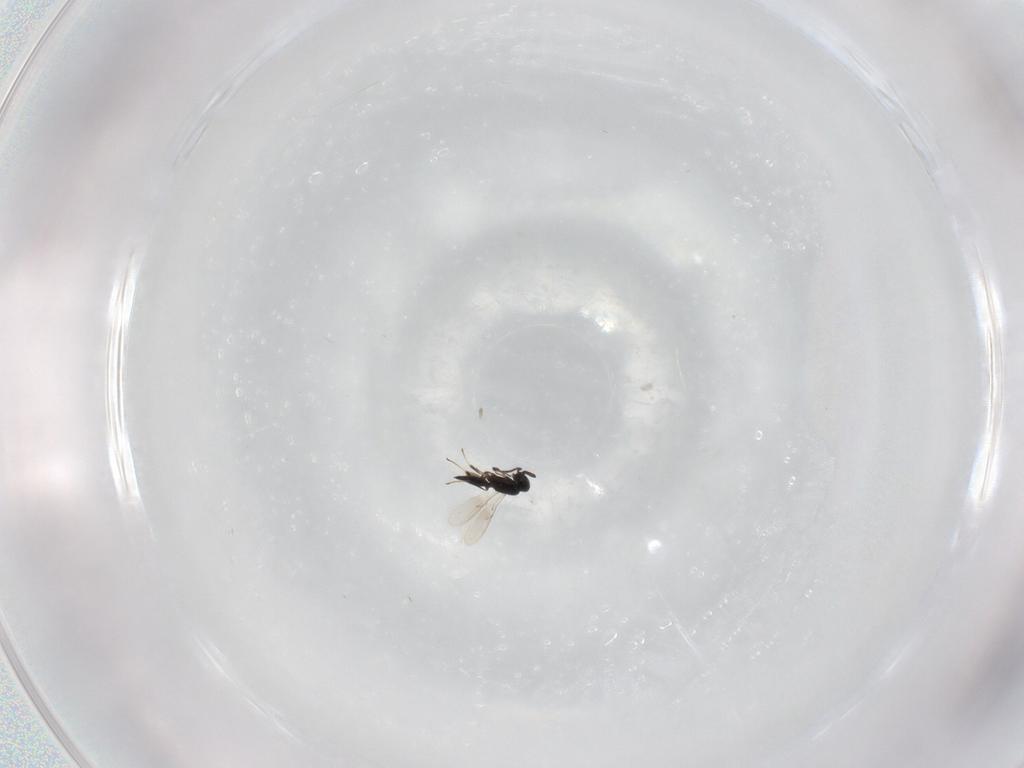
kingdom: Animalia
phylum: Arthropoda
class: Insecta
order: Hymenoptera
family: Scelionidae
